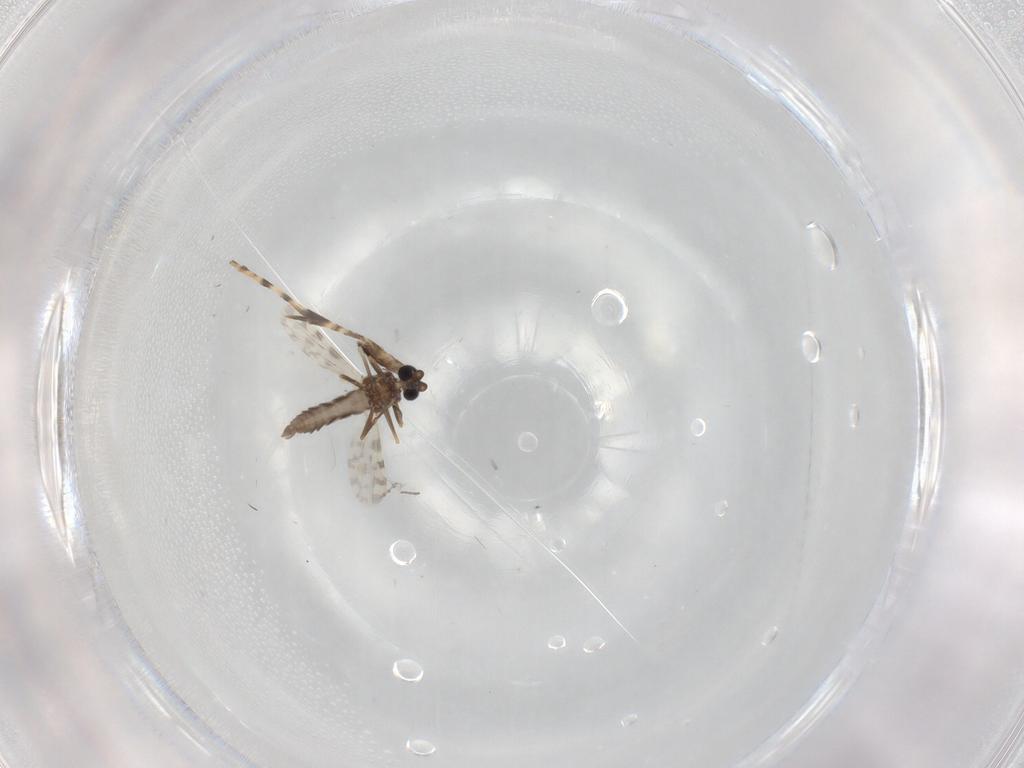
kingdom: Animalia
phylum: Arthropoda
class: Insecta
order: Diptera
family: Ceratopogonidae
